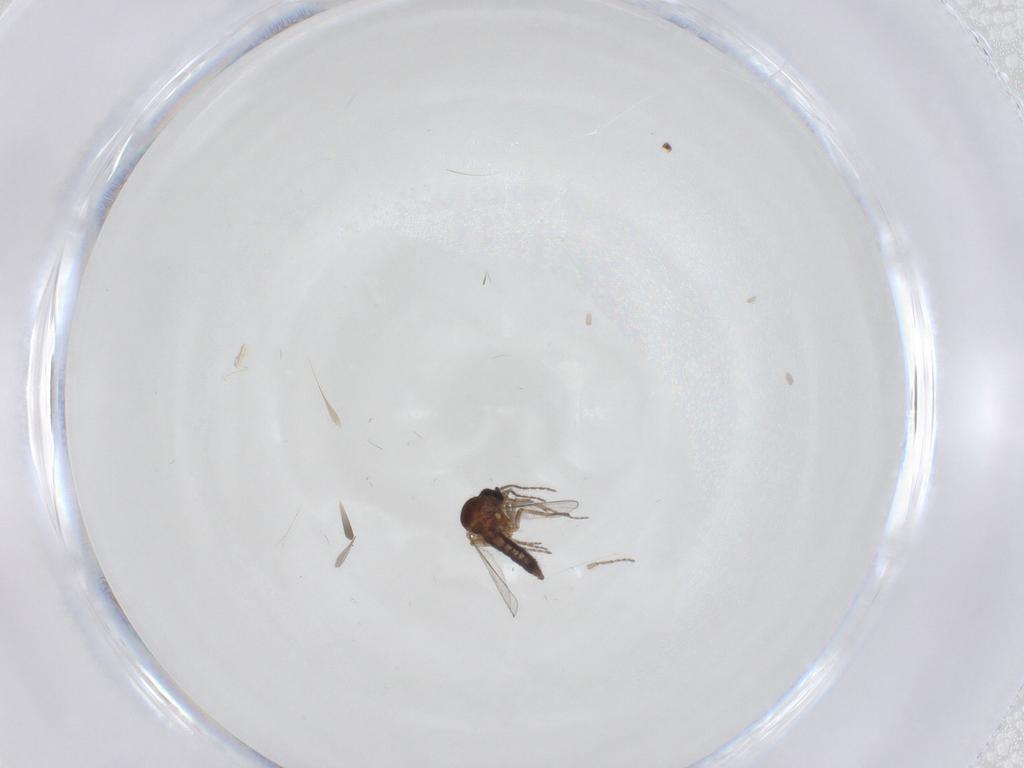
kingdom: Animalia
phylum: Arthropoda
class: Insecta
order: Diptera
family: Ceratopogonidae
